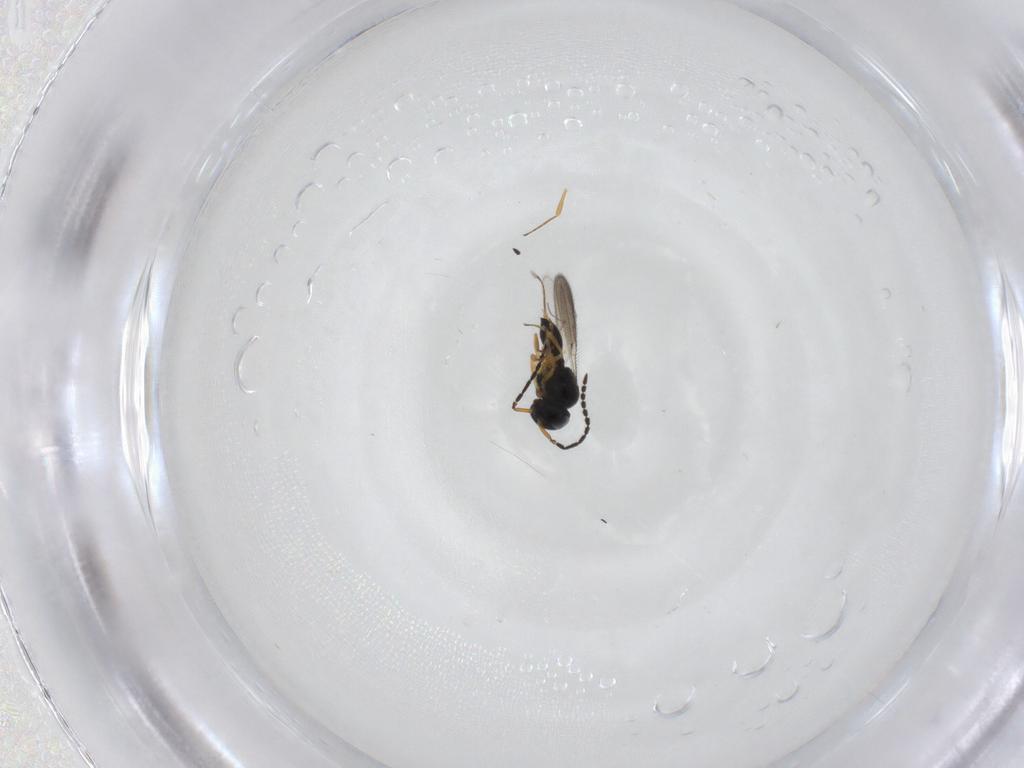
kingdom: Animalia
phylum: Arthropoda
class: Insecta
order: Hymenoptera
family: Scelionidae
